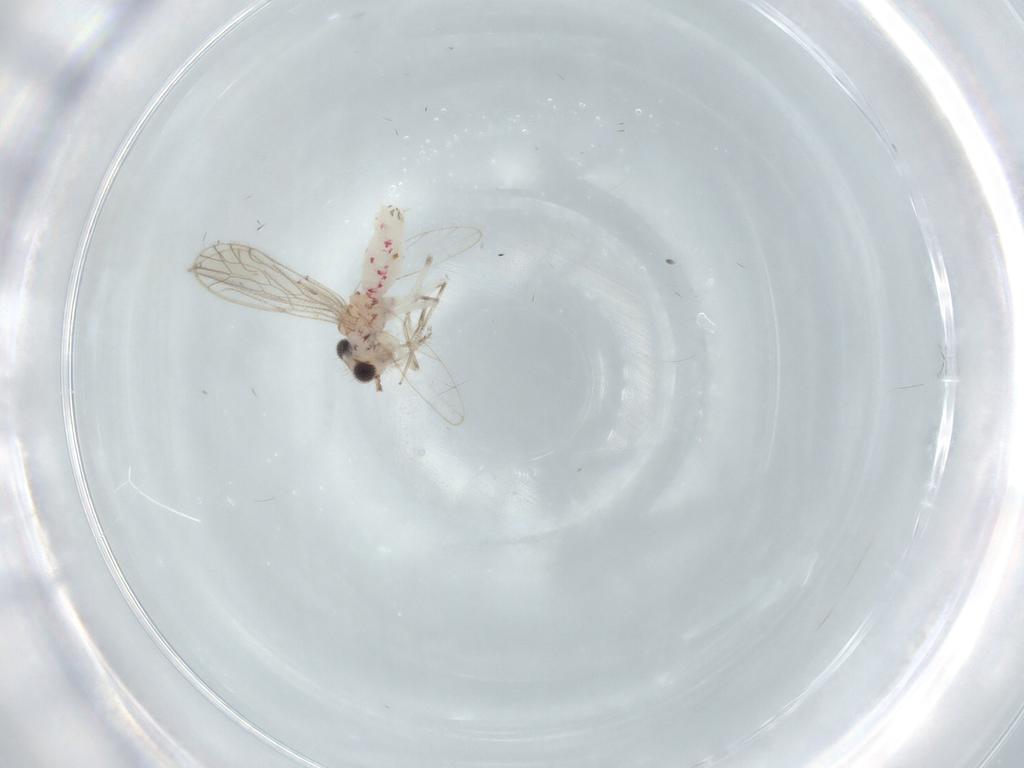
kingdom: Animalia
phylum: Arthropoda
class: Insecta
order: Psocodea
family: Caeciliusidae
